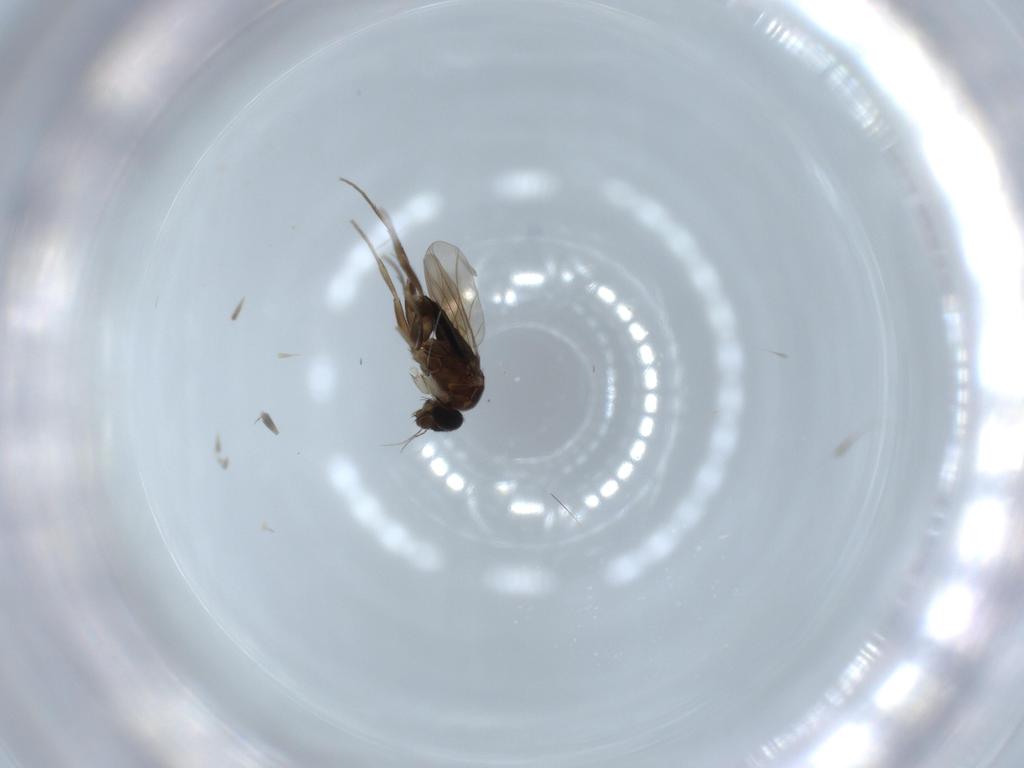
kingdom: Animalia
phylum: Arthropoda
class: Insecta
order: Diptera
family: Phoridae
